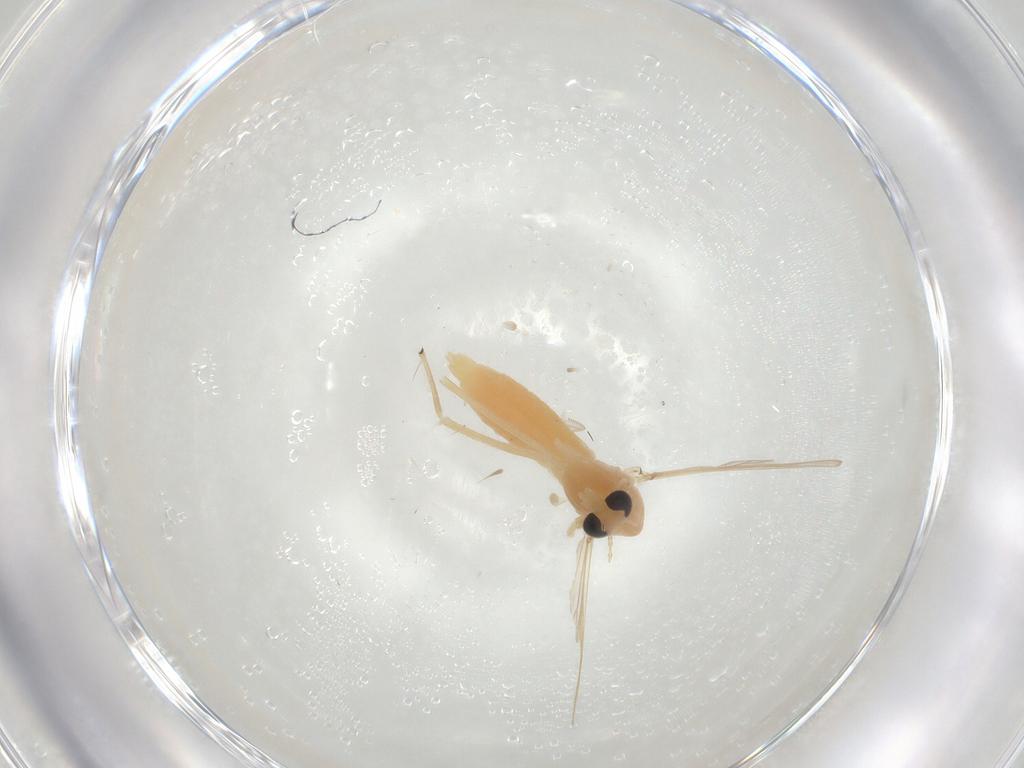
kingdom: Animalia
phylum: Arthropoda
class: Insecta
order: Diptera
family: Chironomidae
